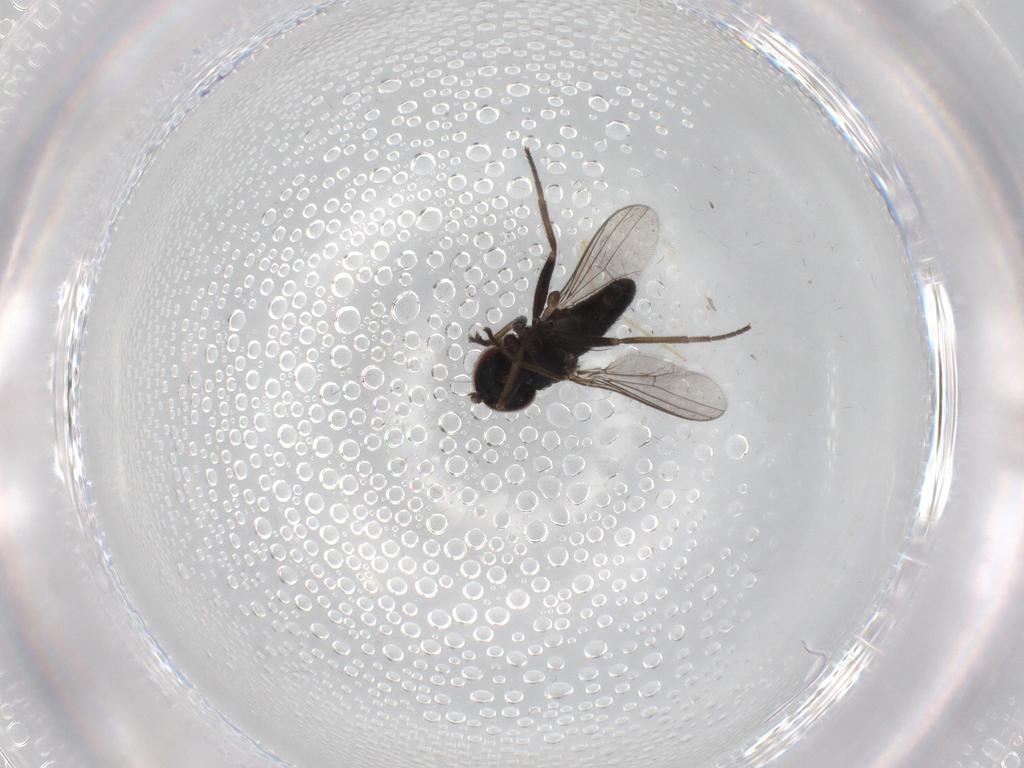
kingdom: Animalia
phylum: Arthropoda
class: Insecta
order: Diptera
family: Dolichopodidae
